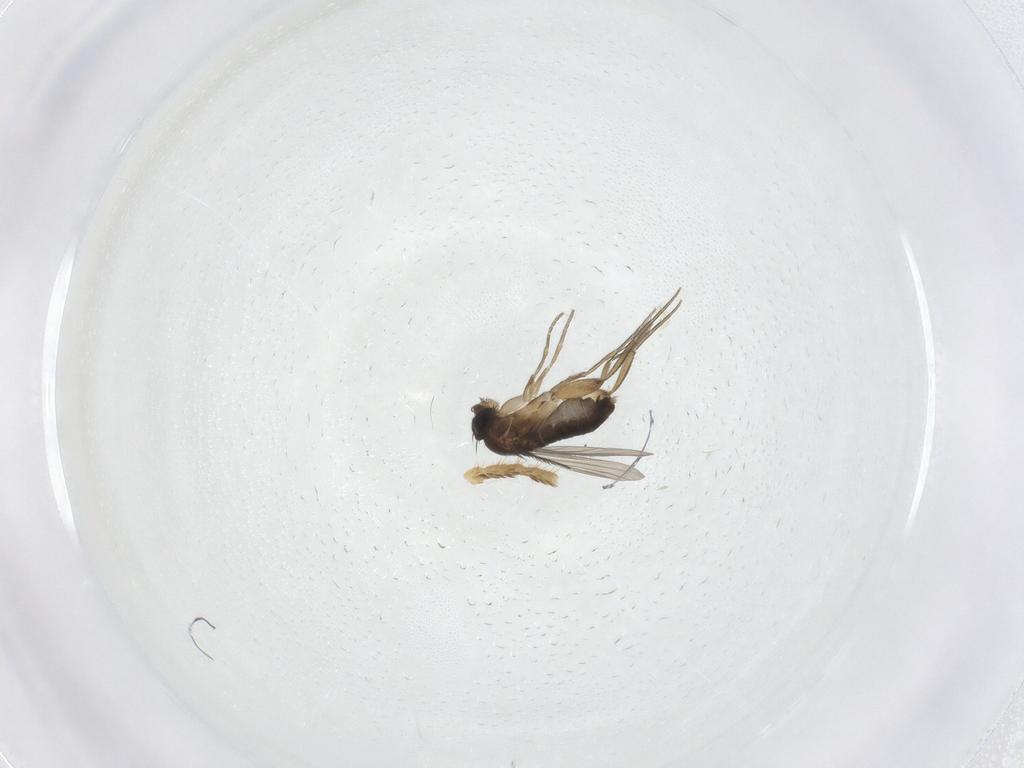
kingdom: Animalia
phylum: Arthropoda
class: Insecta
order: Diptera
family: Phoridae
